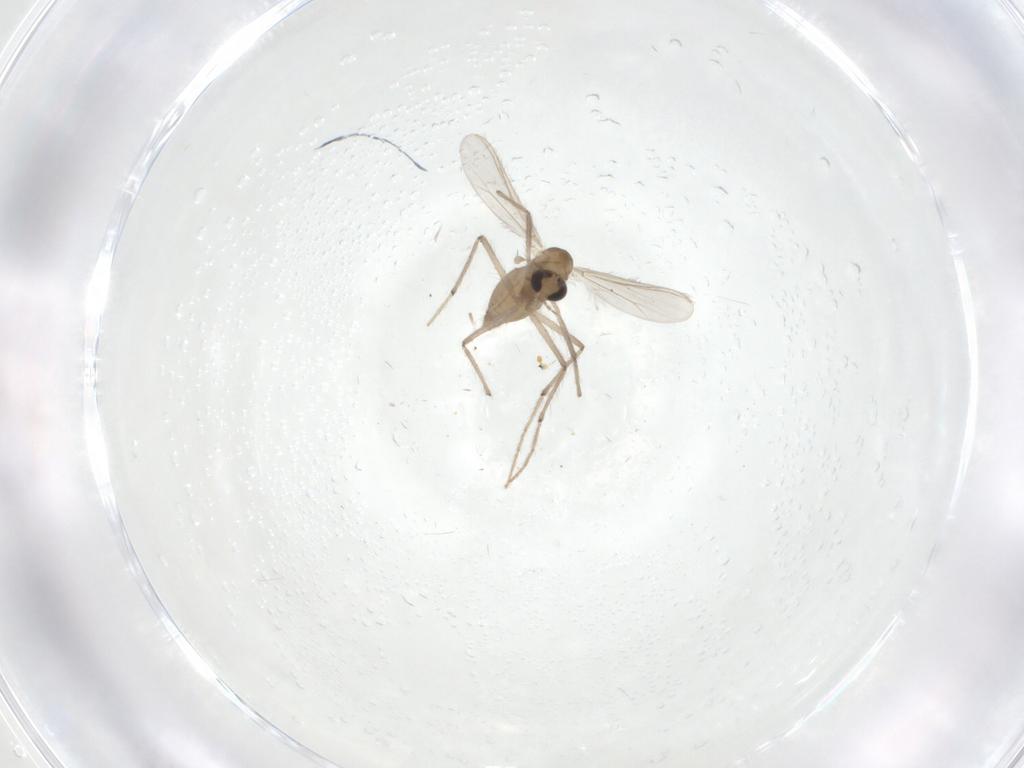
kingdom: Animalia
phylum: Arthropoda
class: Insecta
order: Diptera
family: Chironomidae
